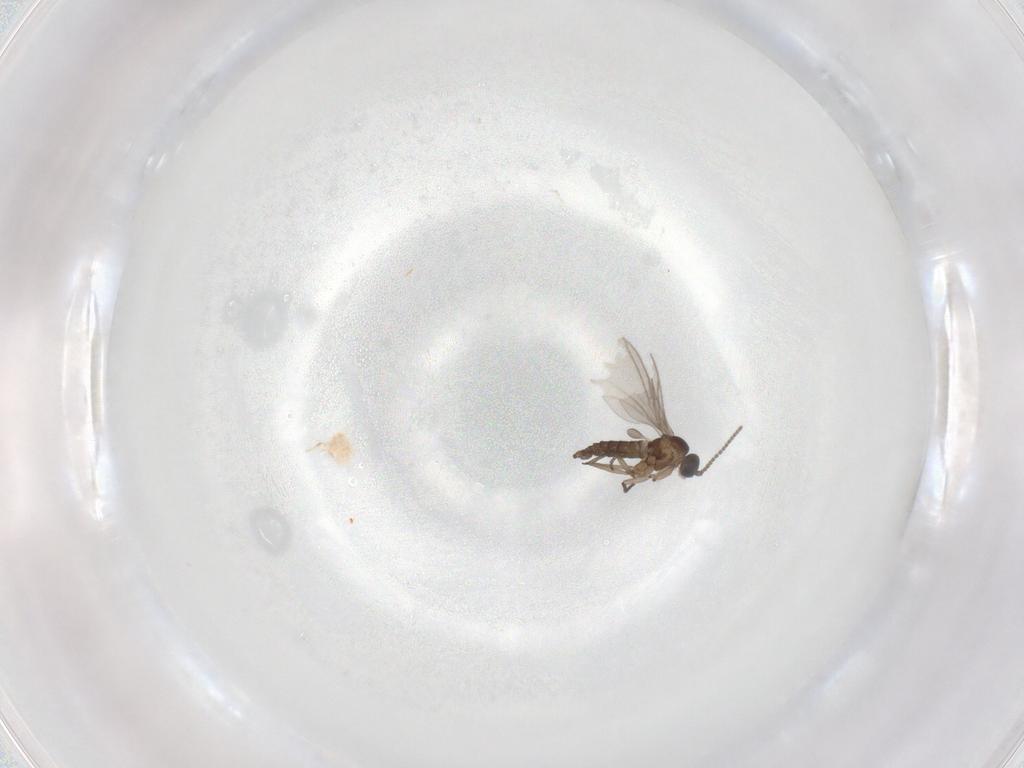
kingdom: Animalia
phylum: Arthropoda
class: Insecta
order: Diptera
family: Sciaridae
